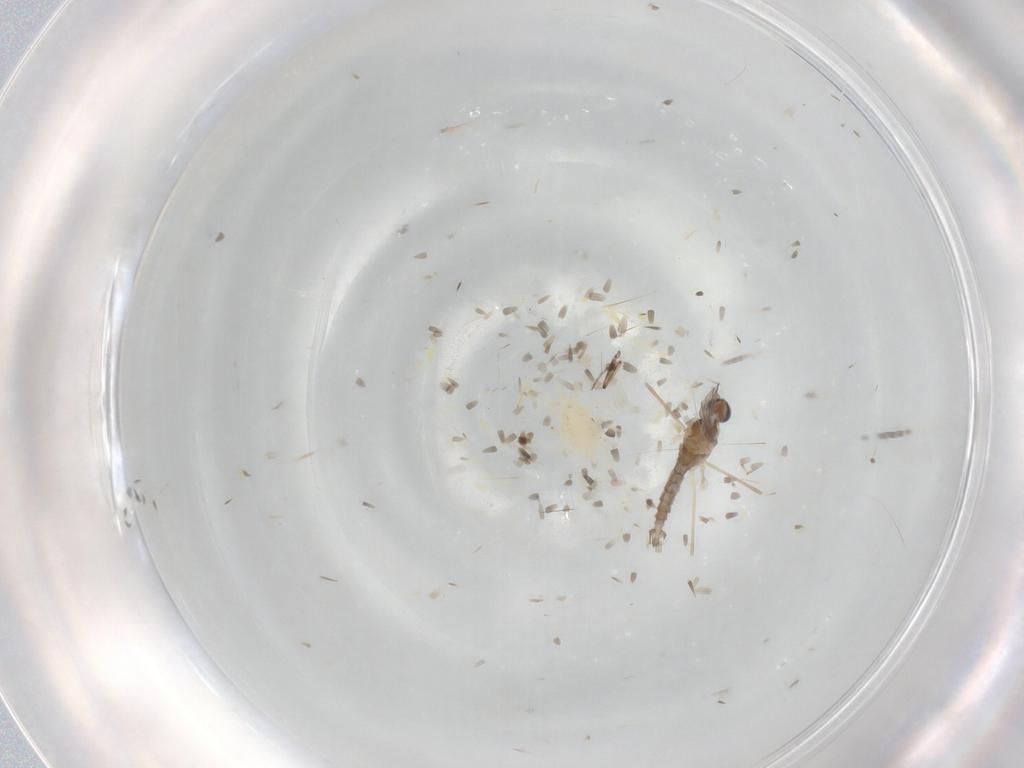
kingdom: Animalia
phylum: Arthropoda
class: Insecta
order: Diptera
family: Cecidomyiidae
